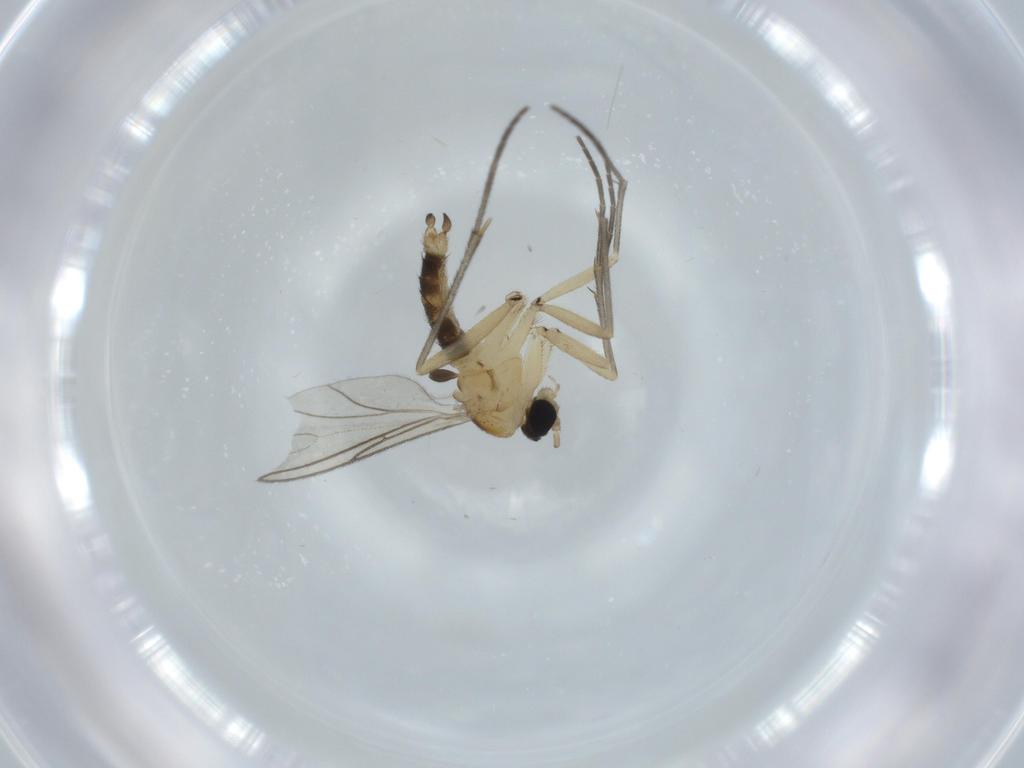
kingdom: Animalia
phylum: Arthropoda
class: Insecta
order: Diptera
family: Sciaridae
